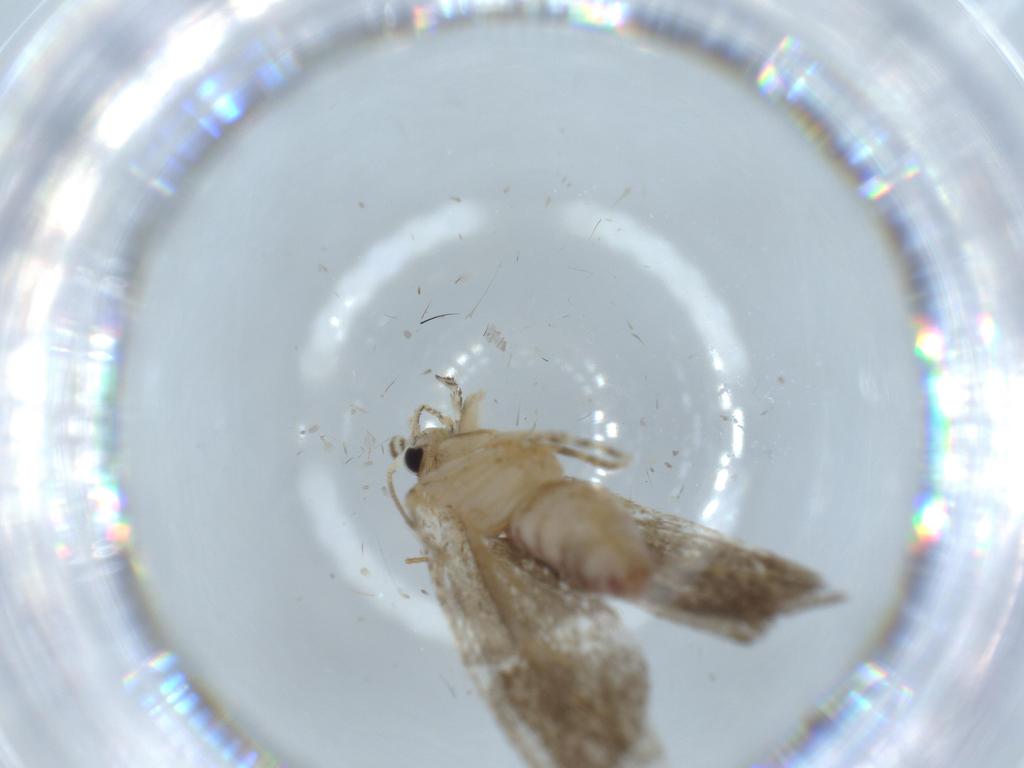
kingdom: Animalia
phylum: Arthropoda
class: Insecta
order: Lepidoptera
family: Tineidae
